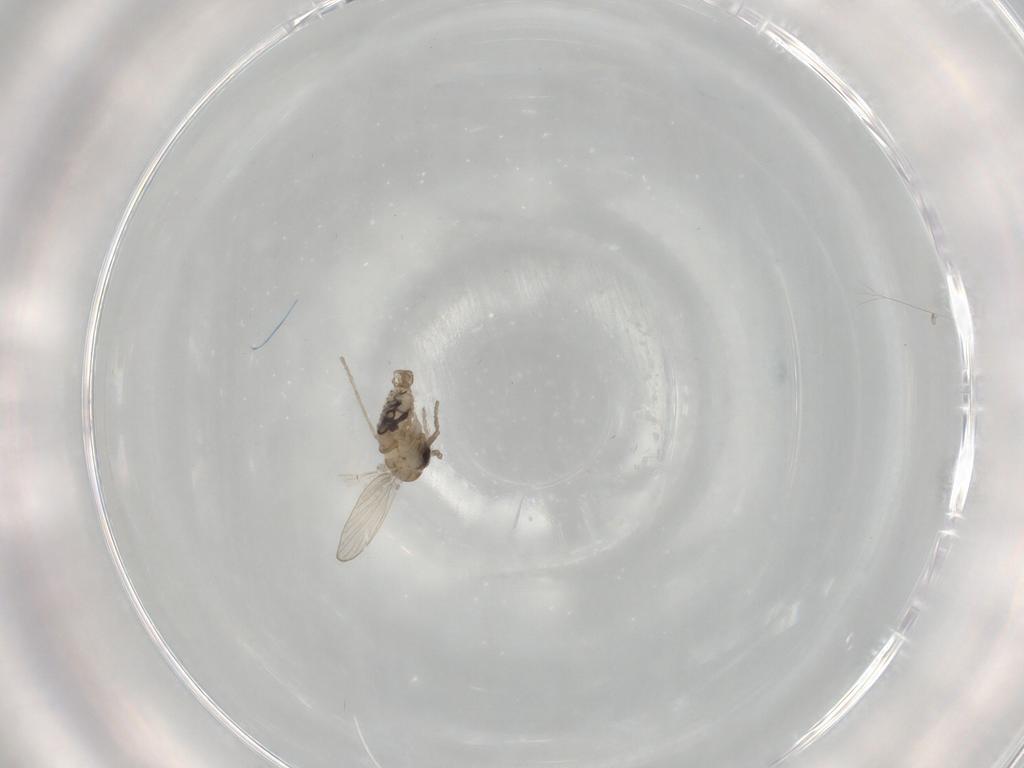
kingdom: Animalia
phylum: Arthropoda
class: Insecta
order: Diptera
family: Psychodidae
